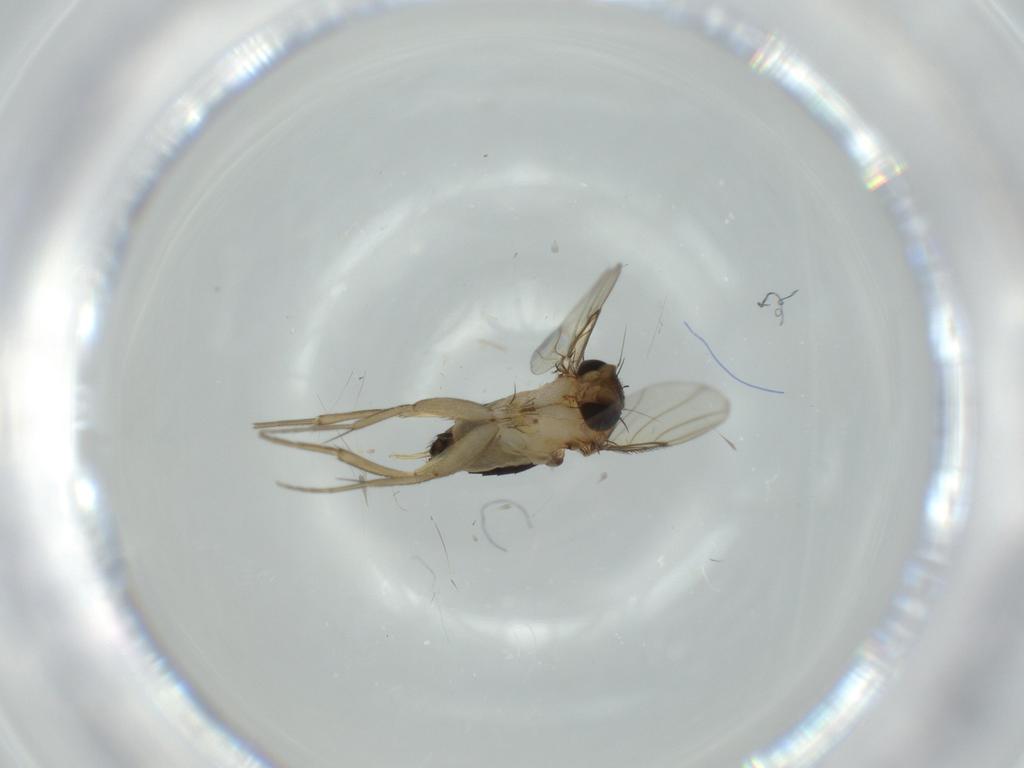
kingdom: Animalia
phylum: Arthropoda
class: Insecta
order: Diptera
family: Phoridae
